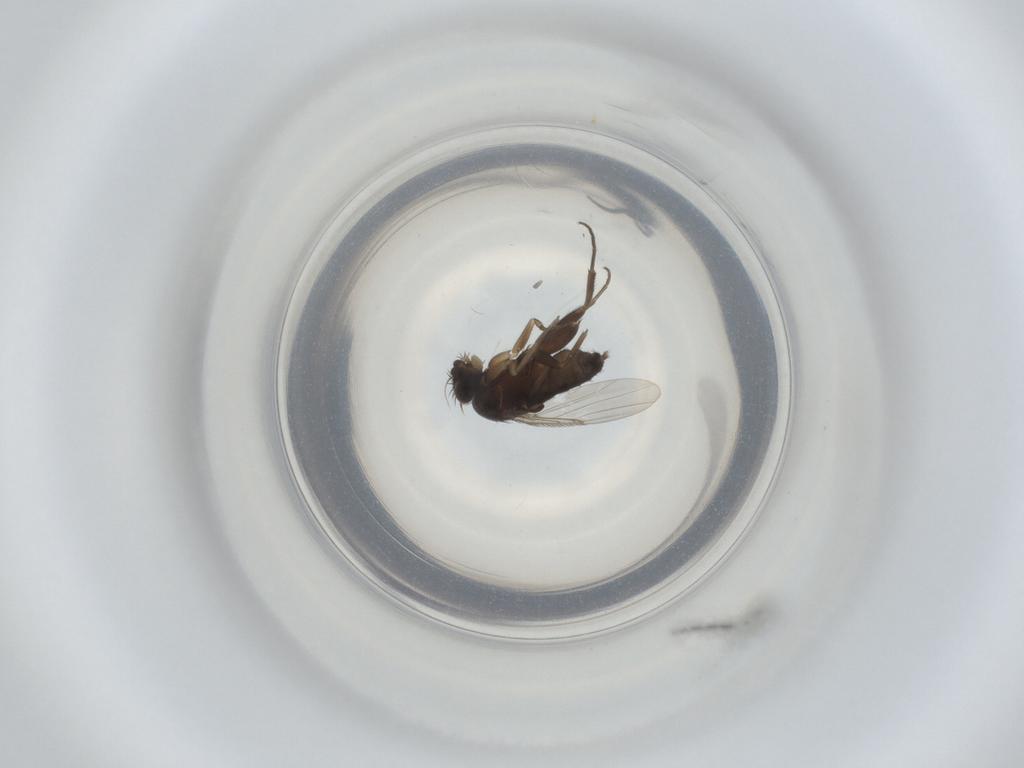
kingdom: Animalia
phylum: Arthropoda
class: Insecta
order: Diptera
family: Phoridae
